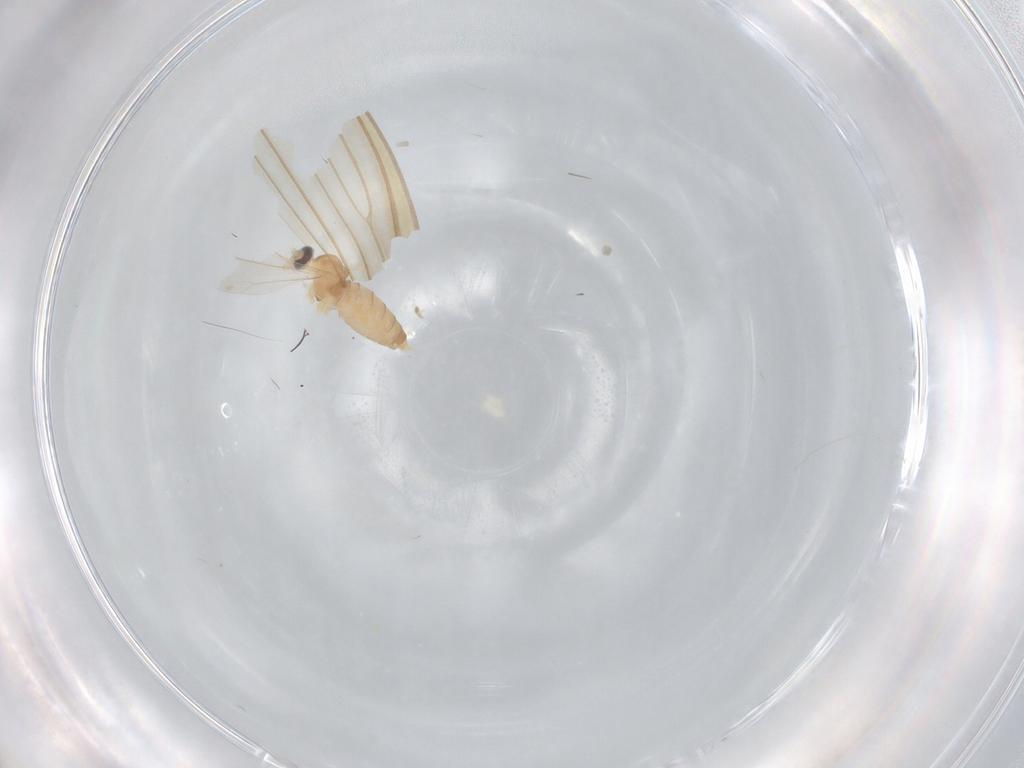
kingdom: Animalia
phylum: Arthropoda
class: Insecta
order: Diptera
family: Cecidomyiidae
